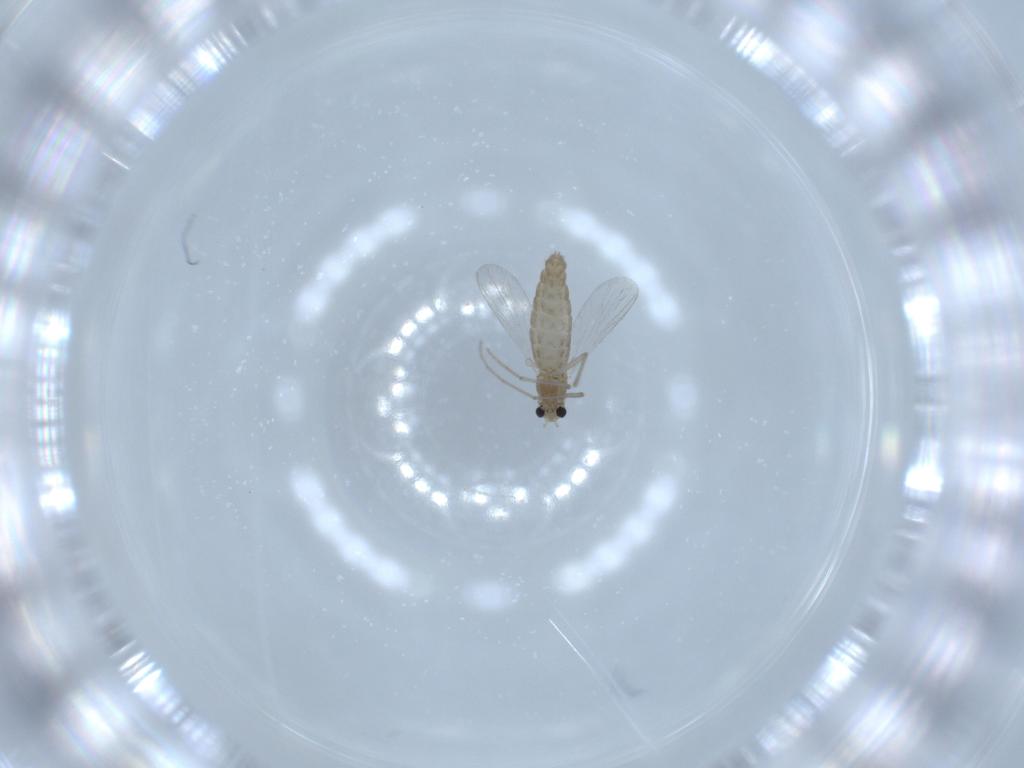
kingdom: Animalia
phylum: Arthropoda
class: Insecta
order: Diptera
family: Chironomidae
